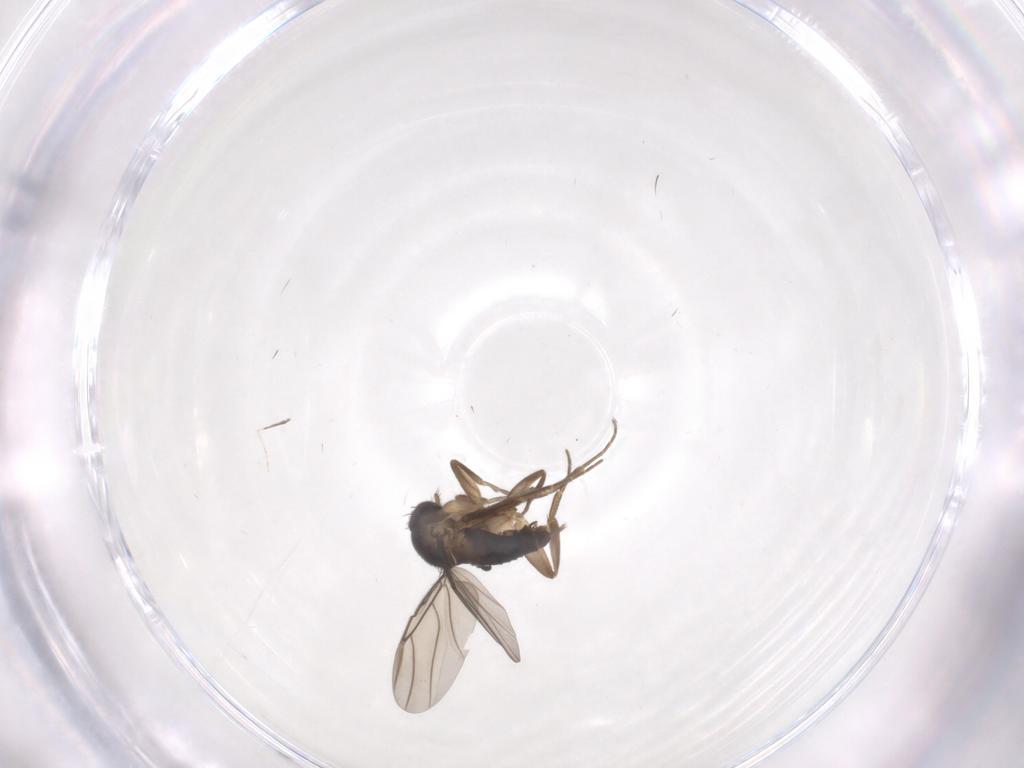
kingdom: Animalia
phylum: Arthropoda
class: Insecta
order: Diptera
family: Phoridae
